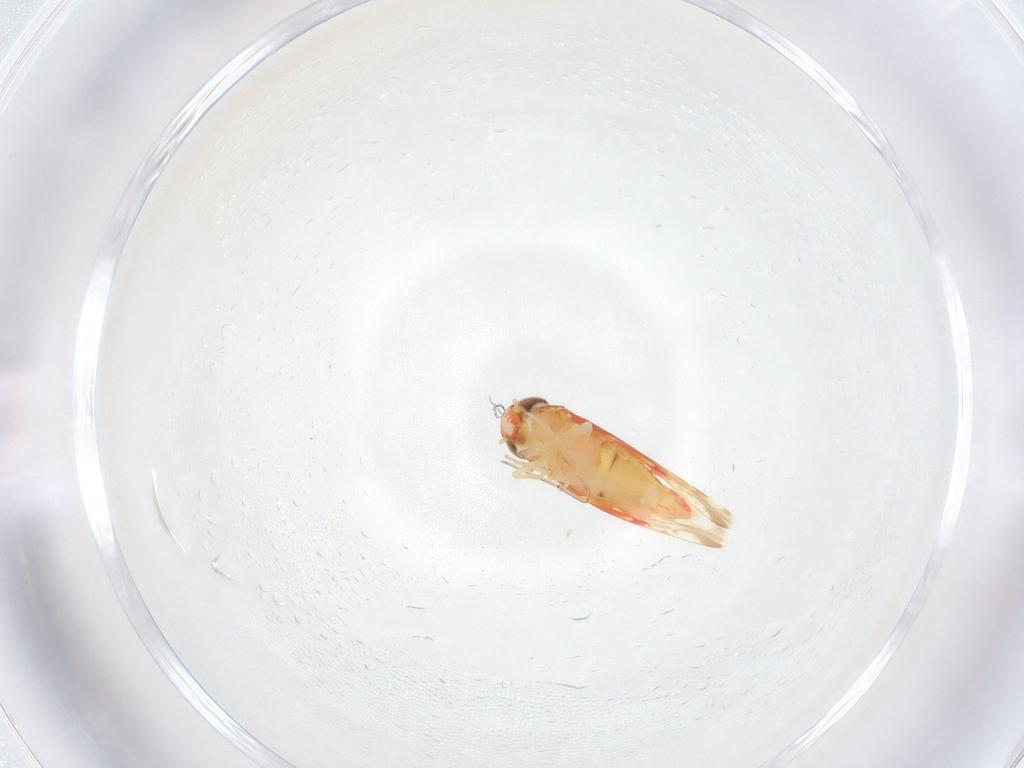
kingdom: Animalia
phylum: Arthropoda
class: Insecta
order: Hemiptera
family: Cicadellidae
